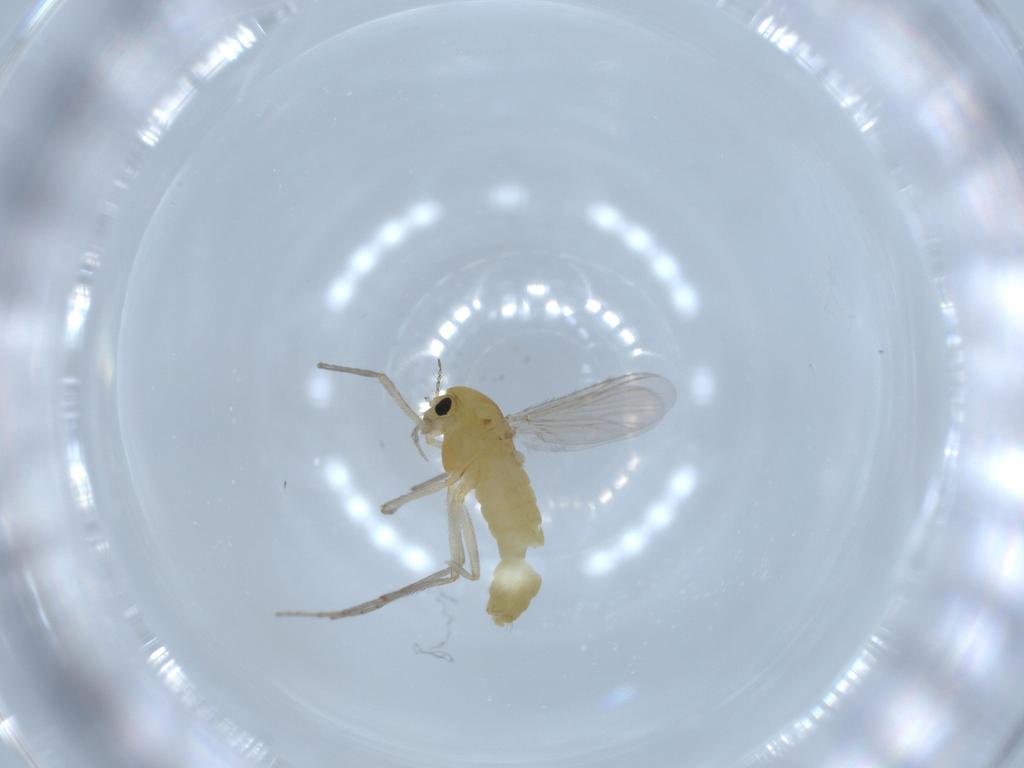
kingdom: Animalia
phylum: Arthropoda
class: Insecta
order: Diptera
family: Chironomidae
